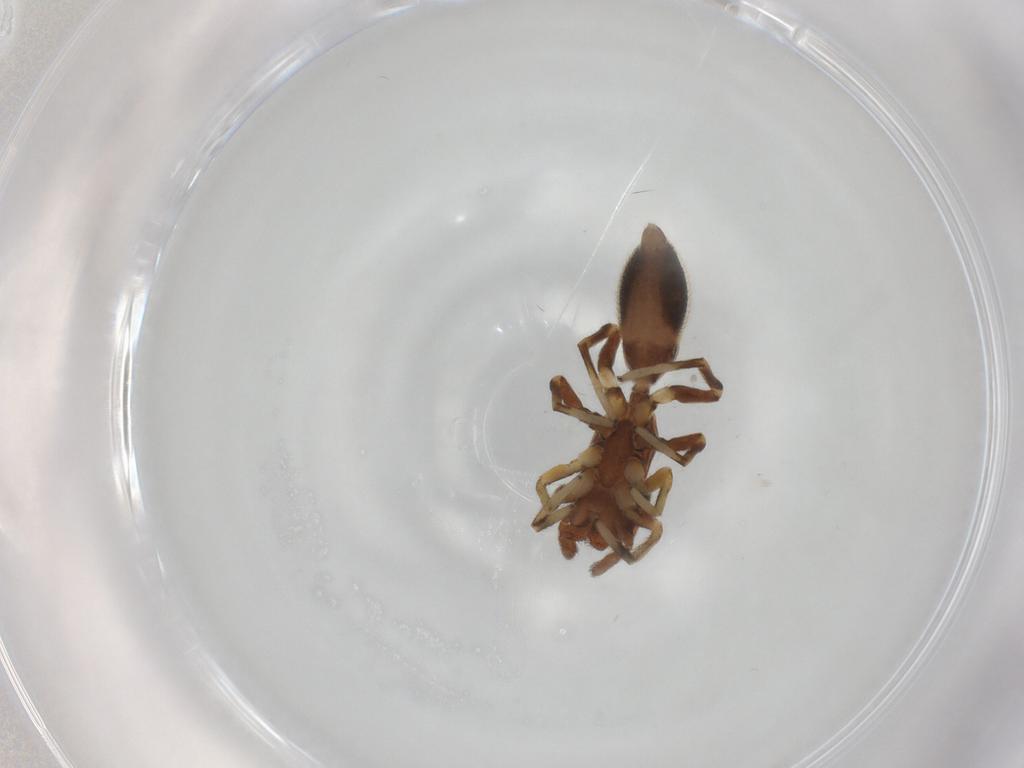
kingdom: Animalia
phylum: Arthropoda
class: Arachnida
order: Araneae
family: Salticidae
